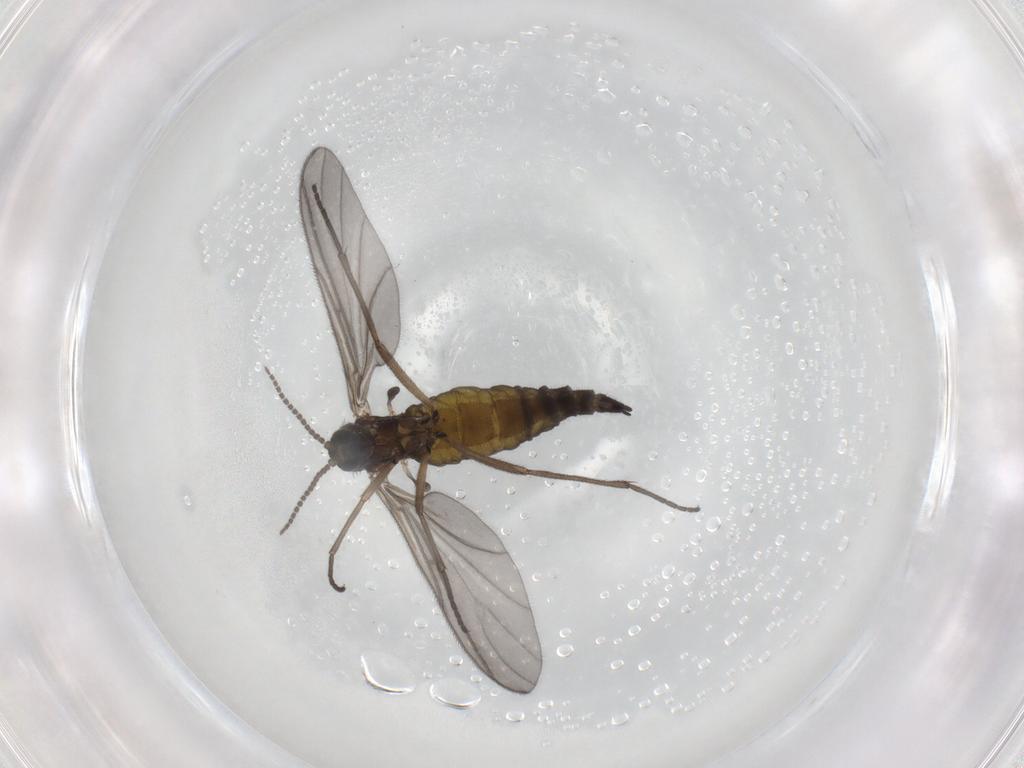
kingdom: Animalia
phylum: Arthropoda
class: Insecta
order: Diptera
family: Sciaridae
